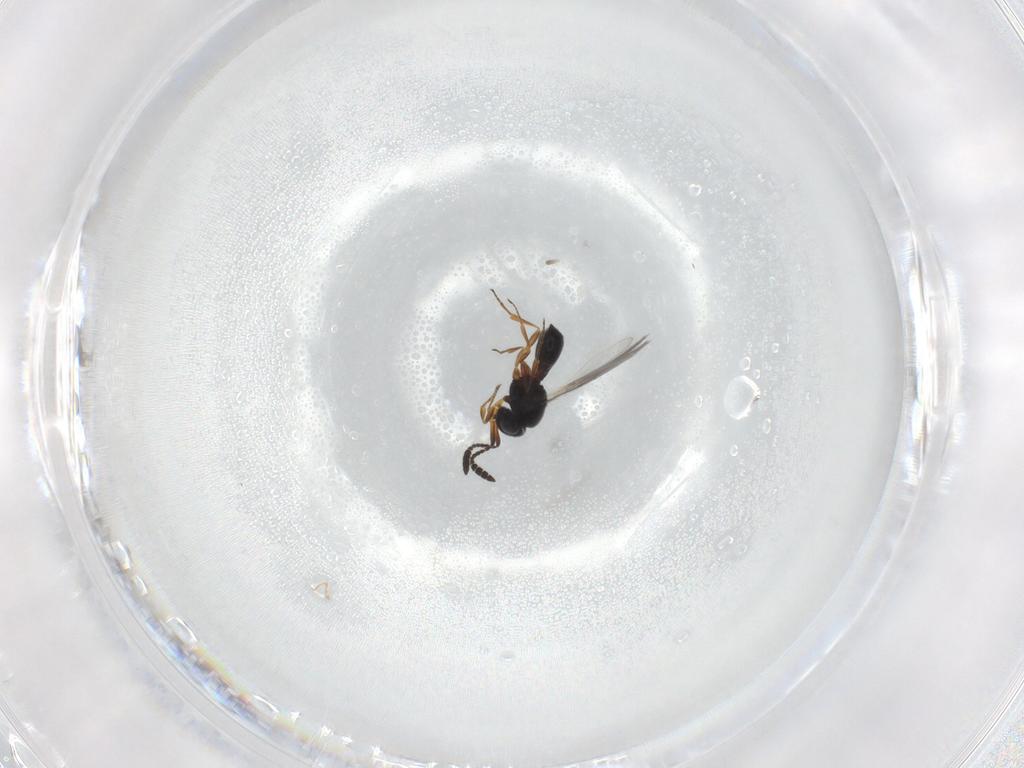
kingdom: Animalia
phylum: Arthropoda
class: Insecta
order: Hymenoptera
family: Scelionidae
